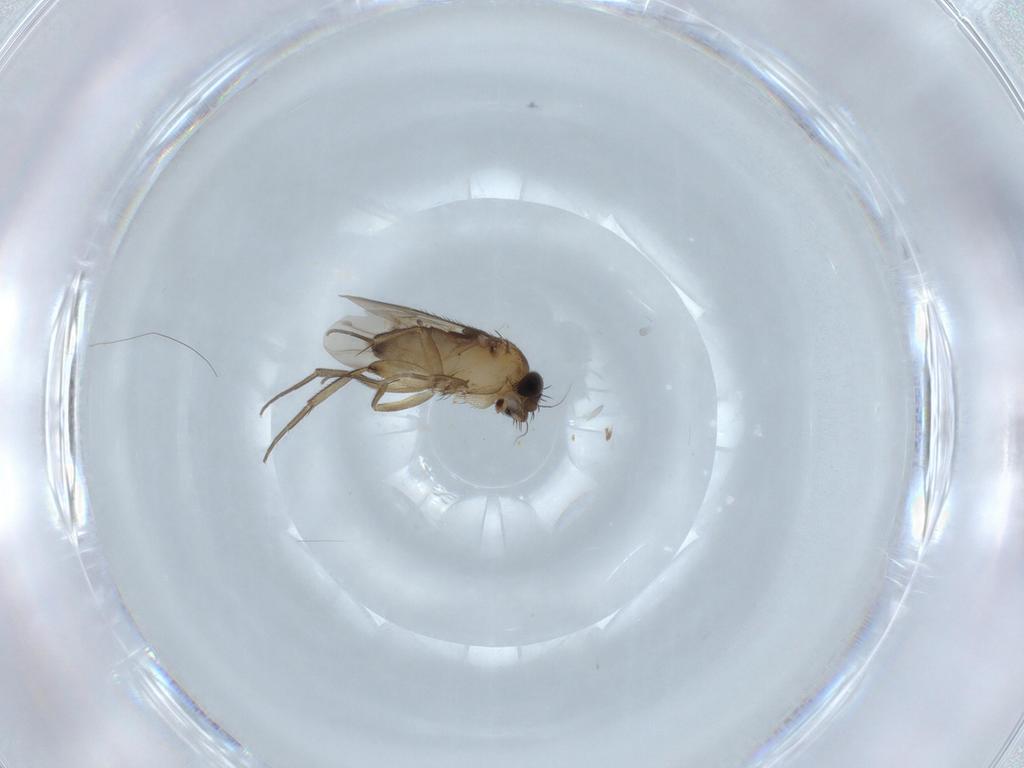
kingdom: Animalia
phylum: Arthropoda
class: Insecta
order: Diptera
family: Phoridae
